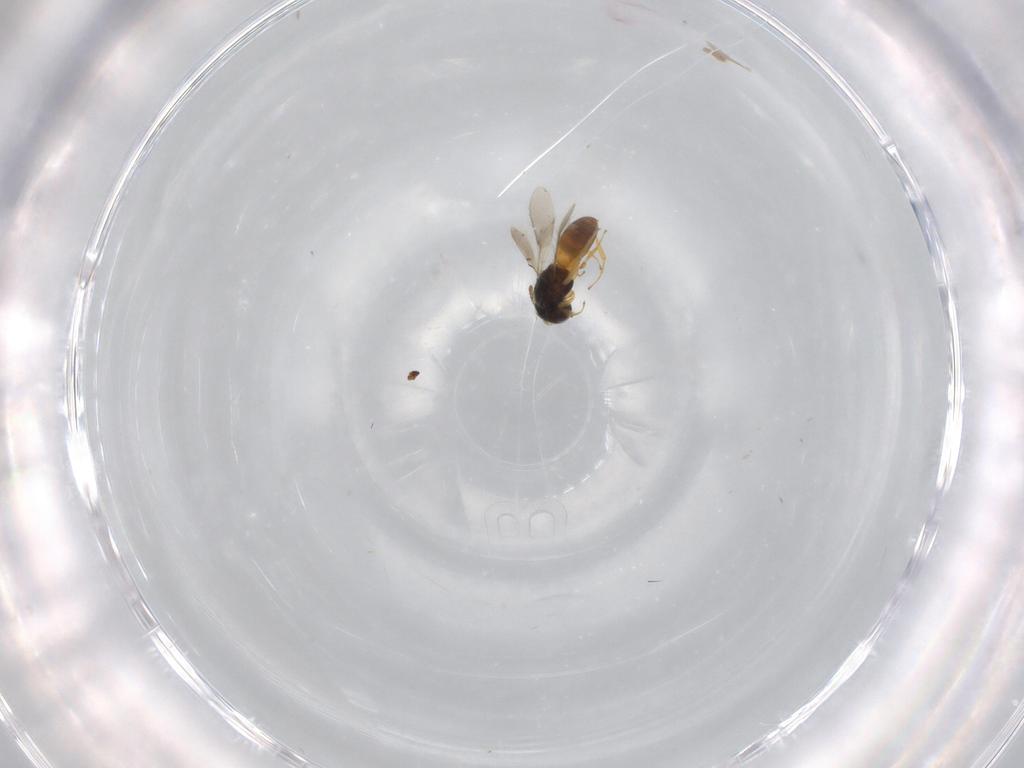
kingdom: Animalia
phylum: Arthropoda
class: Insecta
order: Hymenoptera
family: Scelionidae
